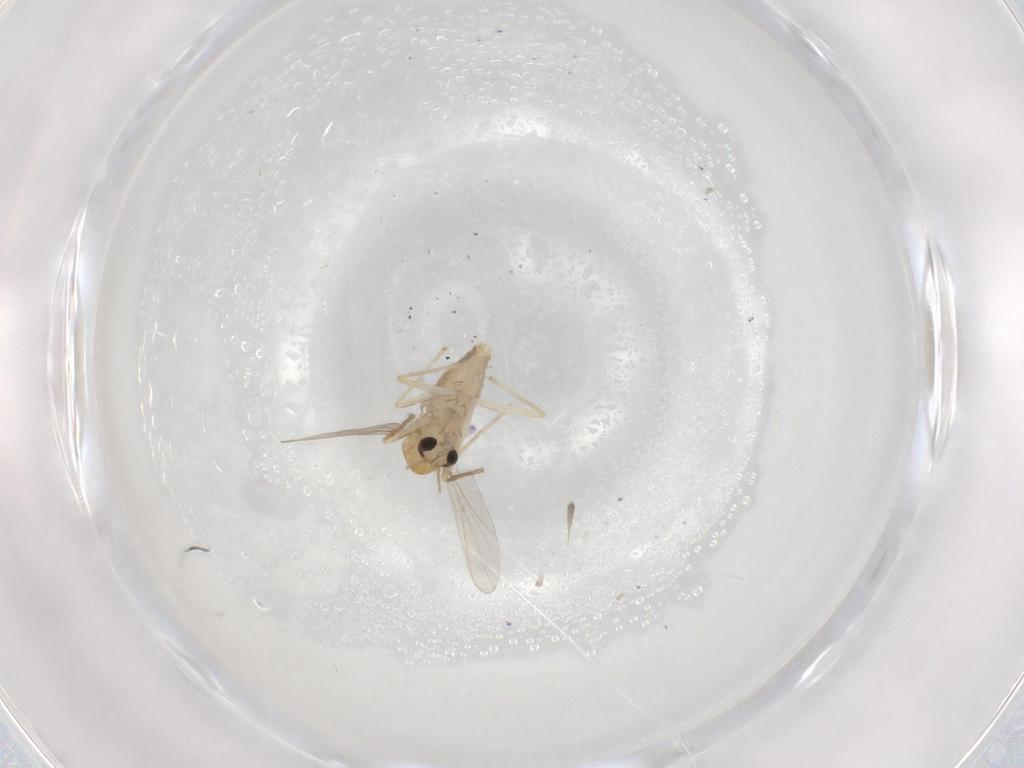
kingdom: Animalia
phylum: Arthropoda
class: Insecta
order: Diptera
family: Chironomidae
